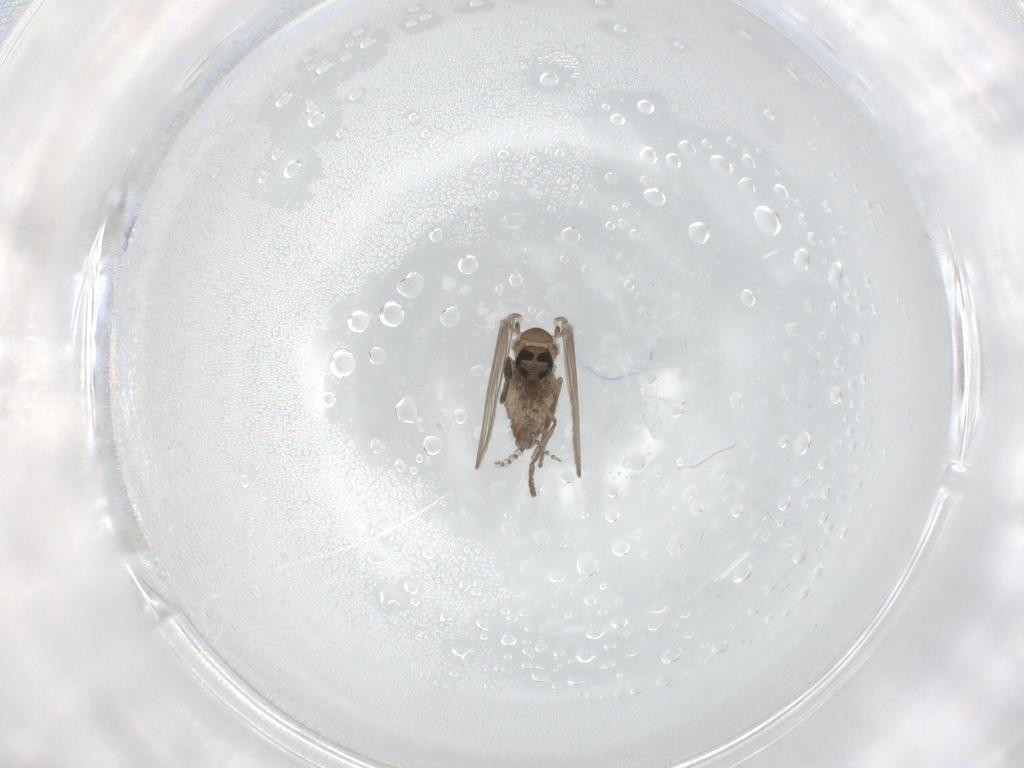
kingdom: Animalia
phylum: Arthropoda
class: Insecta
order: Diptera
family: Psychodidae
